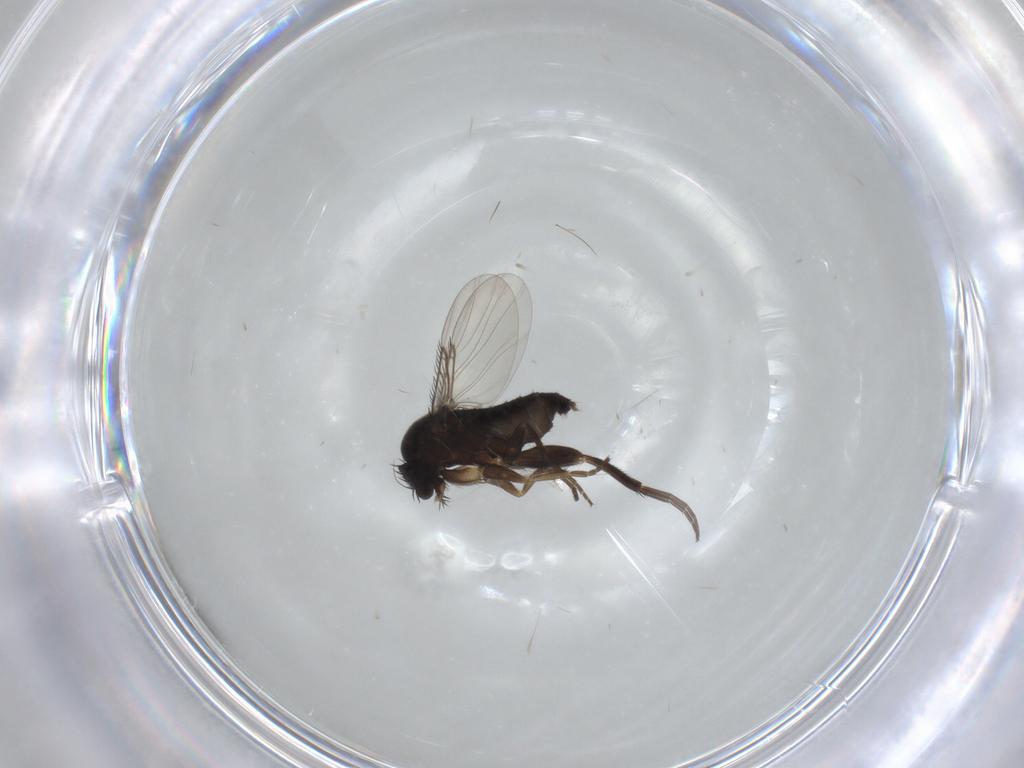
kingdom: Animalia
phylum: Arthropoda
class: Insecta
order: Diptera
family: Phoridae
